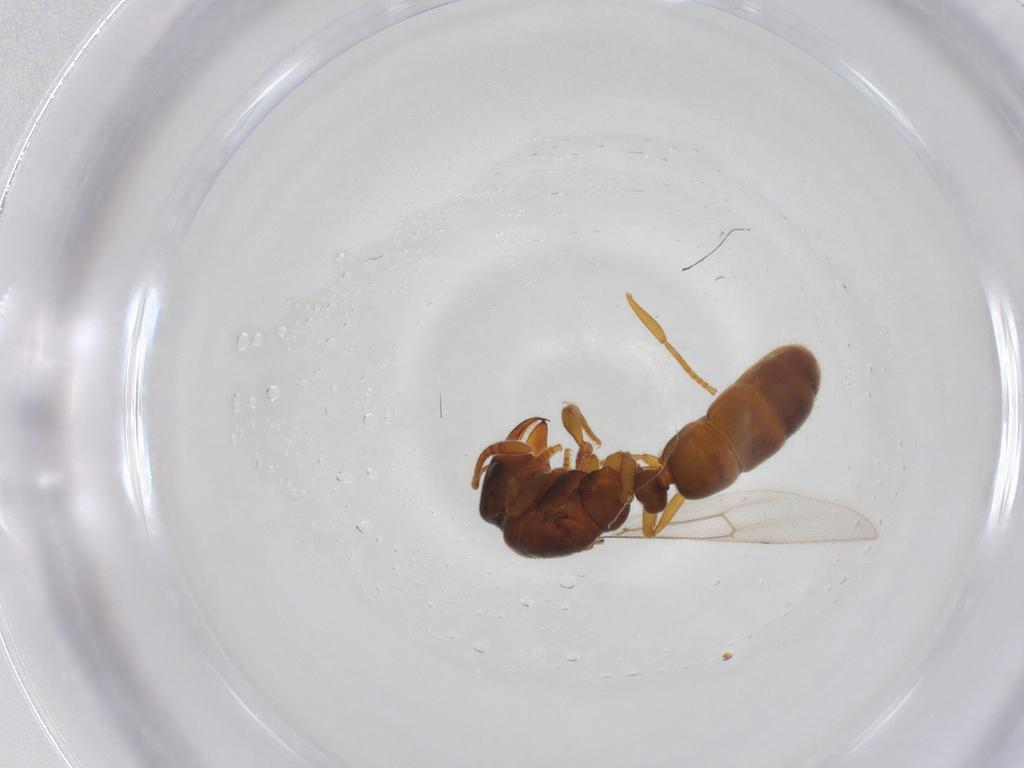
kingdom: Animalia
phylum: Arthropoda
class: Insecta
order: Hymenoptera
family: Formicidae
